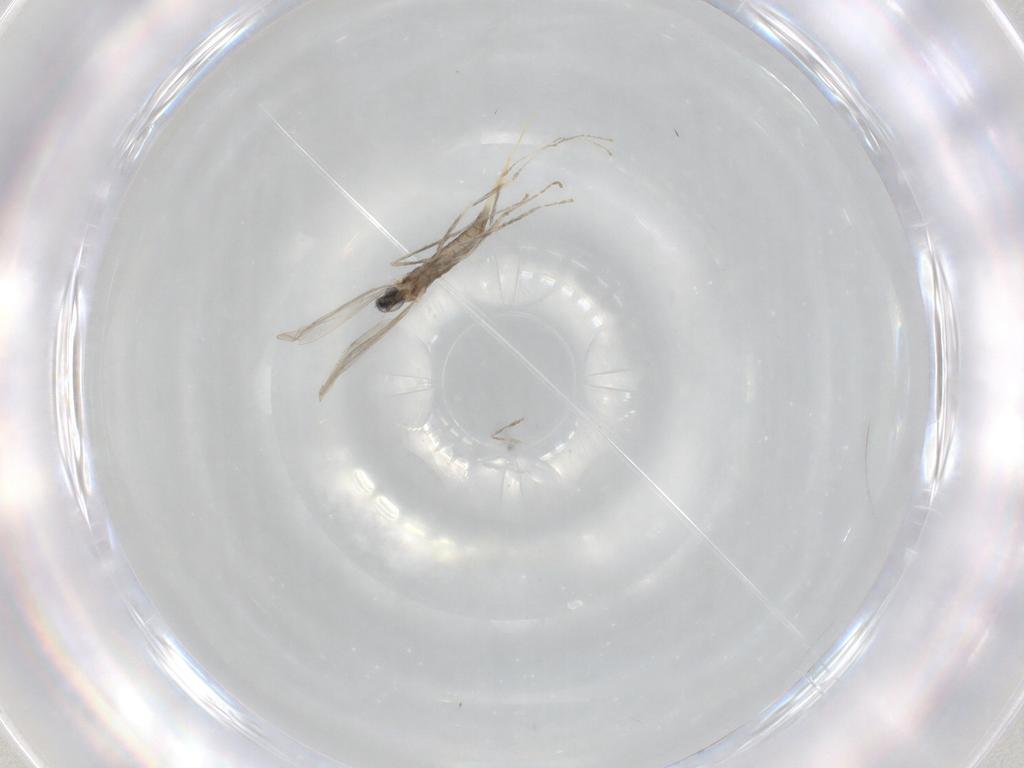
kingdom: Animalia
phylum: Arthropoda
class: Insecta
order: Diptera
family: Cecidomyiidae
